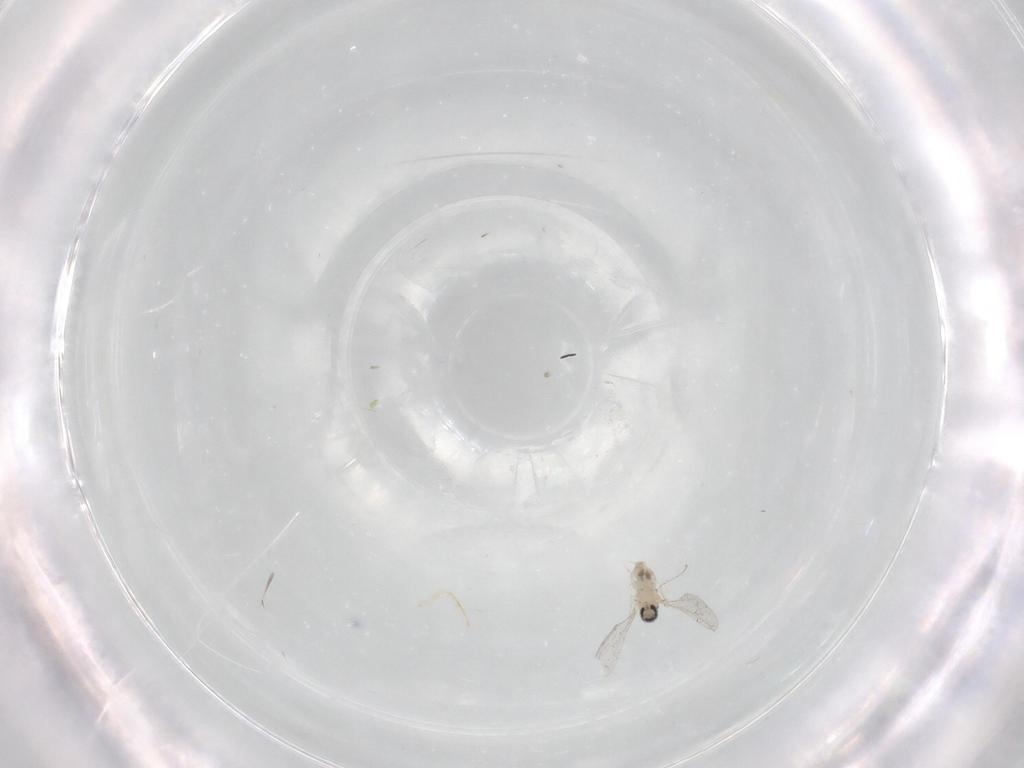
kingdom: Animalia
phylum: Arthropoda
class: Insecta
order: Diptera
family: Cecidomyiidae
